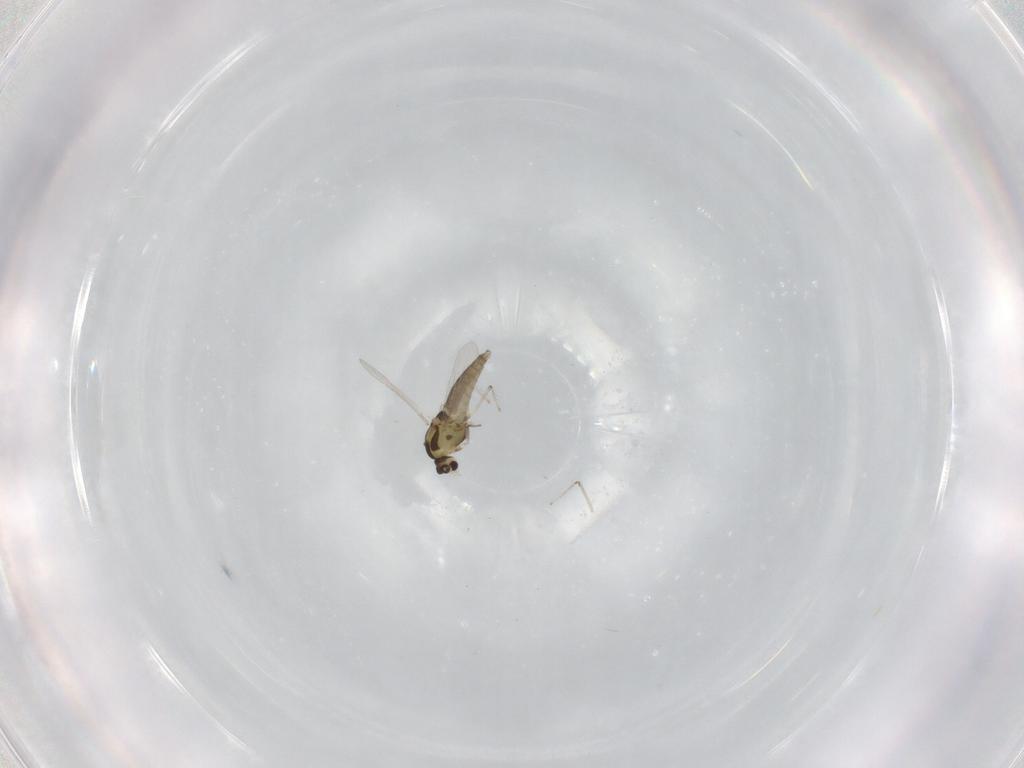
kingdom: Animalia
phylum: Arthropoda
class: Insecta
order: Diptera
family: Chironomidae
